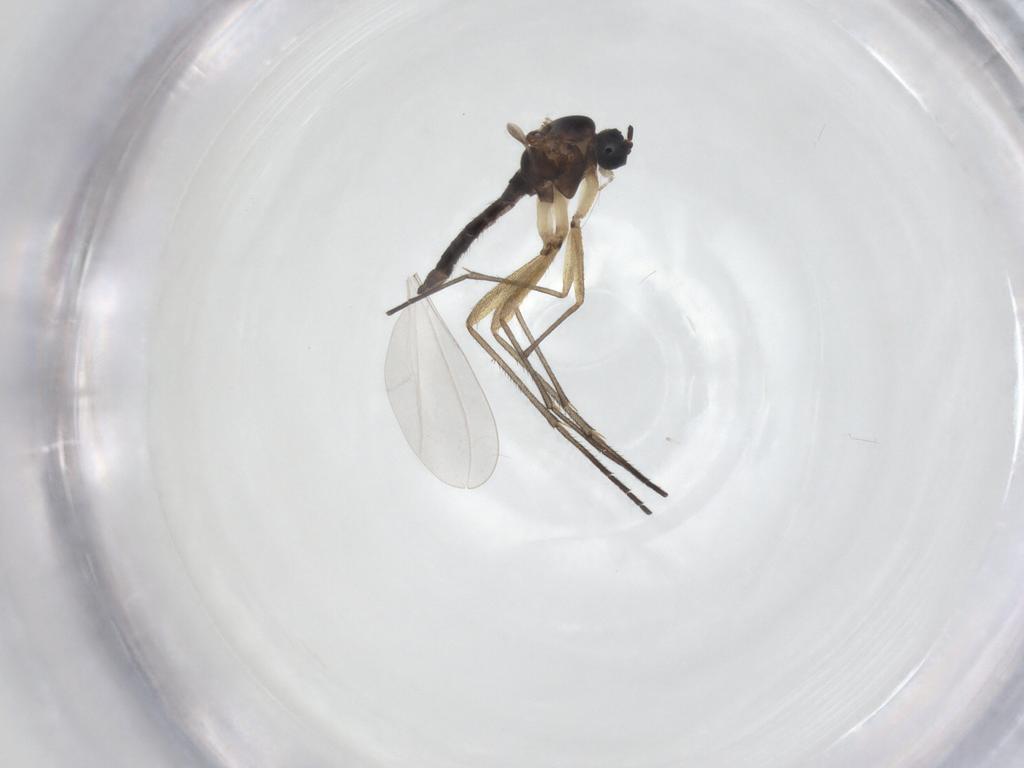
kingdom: Animalia
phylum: Arthropoda
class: Insecta
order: Diptera
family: Sciaridae
